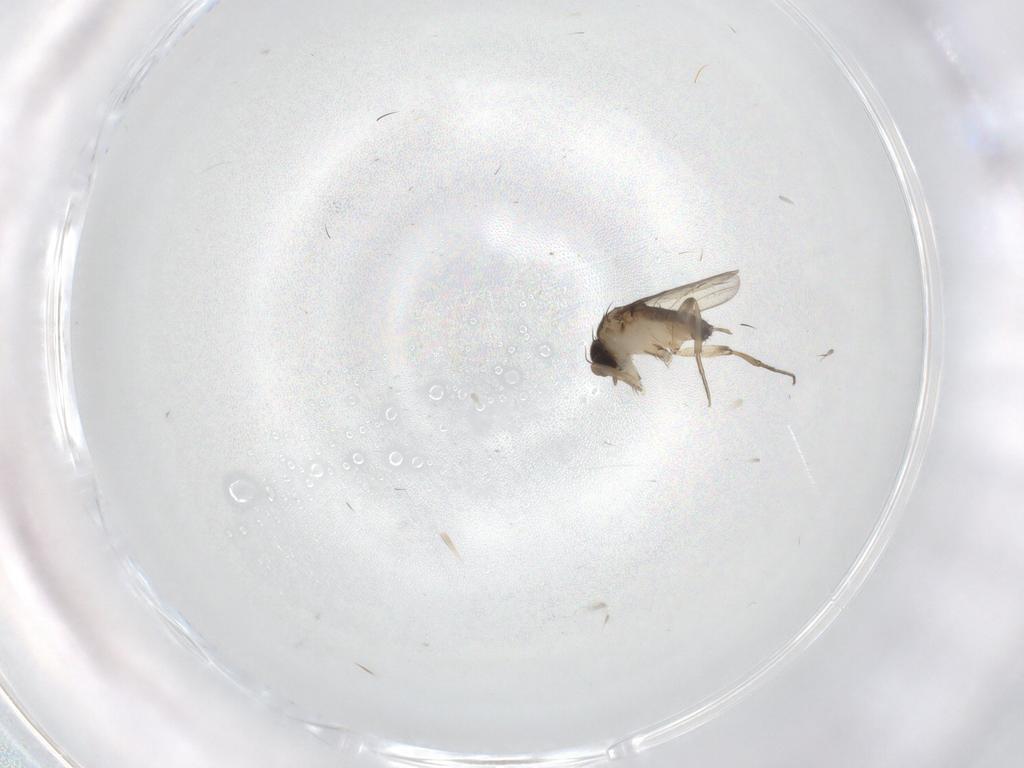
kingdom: Animalia
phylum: Arthropoda
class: Insecta
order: Diptera
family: Phoridae
